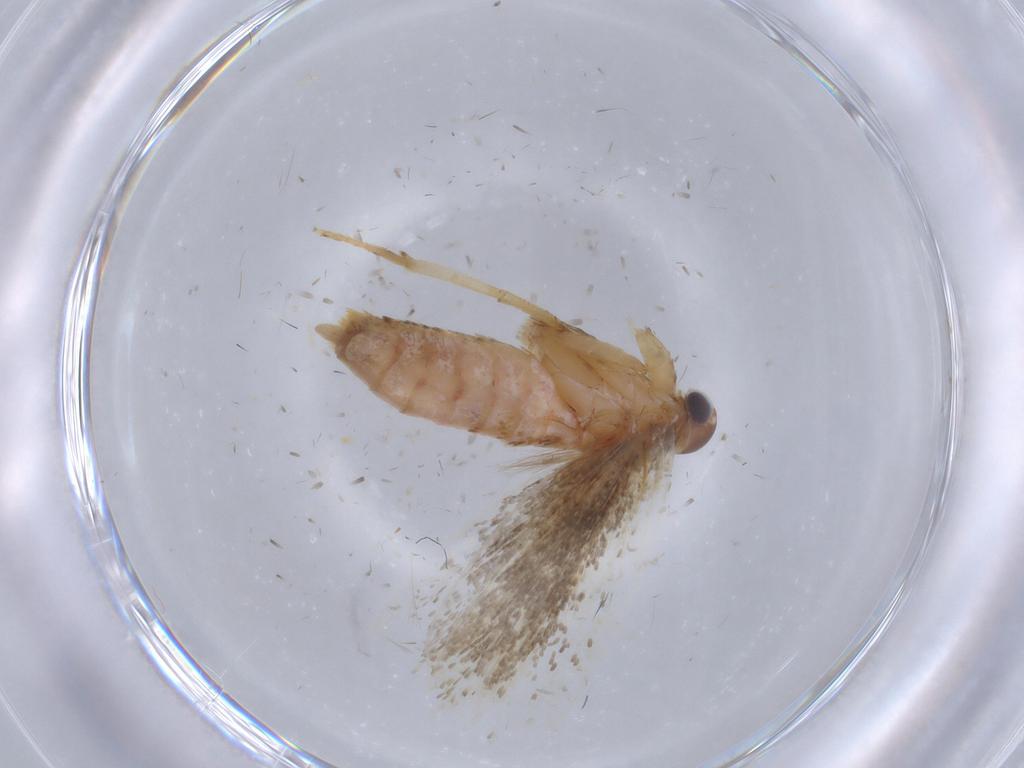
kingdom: Animalia
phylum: Arthropoda
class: Insecta
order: Lepidoptera
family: Gelechiidae
